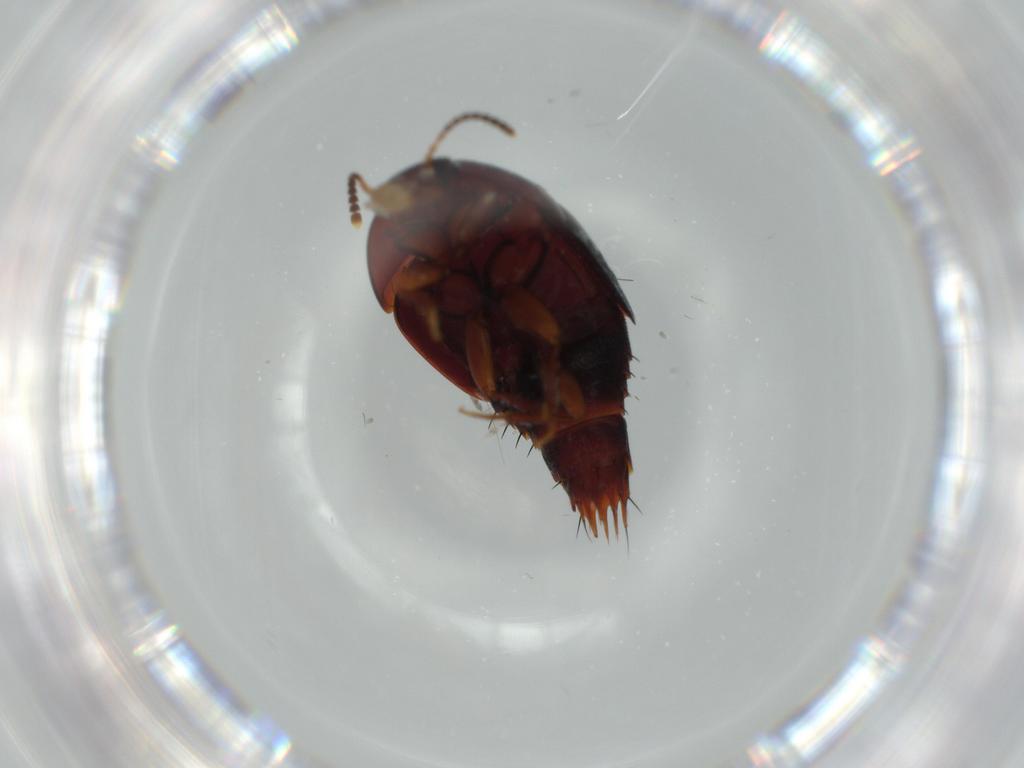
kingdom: Animalia
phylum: Arthropoda
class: Insecta
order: Coleoptera
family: Staphylinidae
